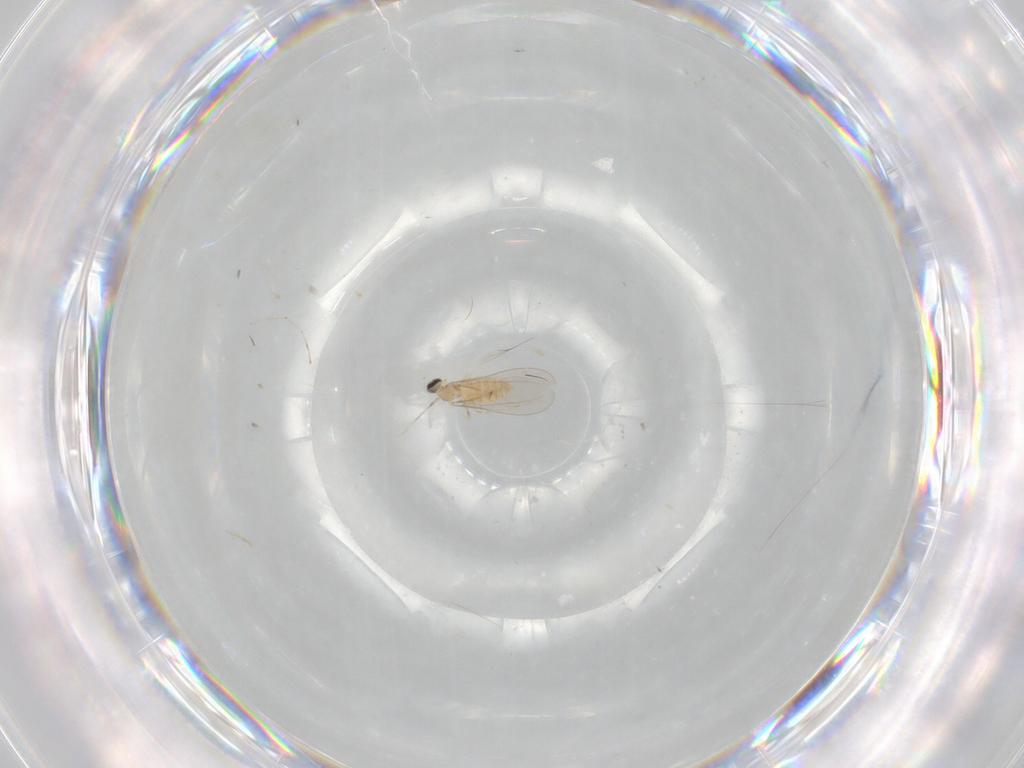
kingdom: Animalia
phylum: Arthropoda
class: Insecta
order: Diptera
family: Cecidomyiidae
